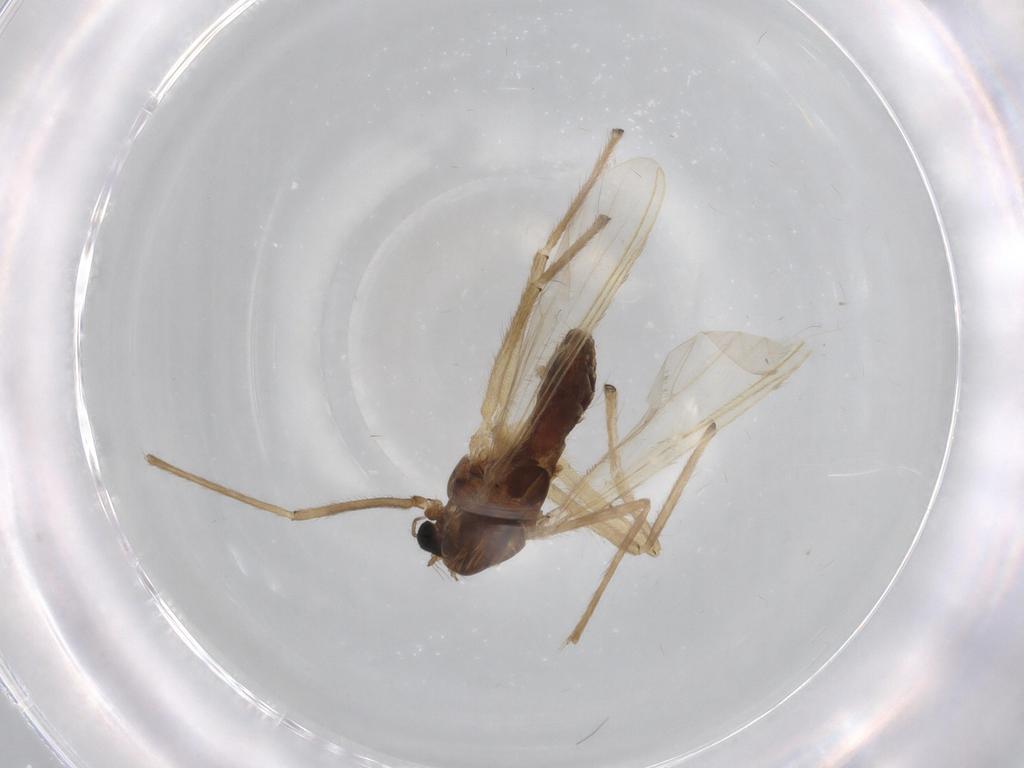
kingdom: Animalia
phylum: Arthropoda
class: Insecta
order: Diptera
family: Chironomidae
